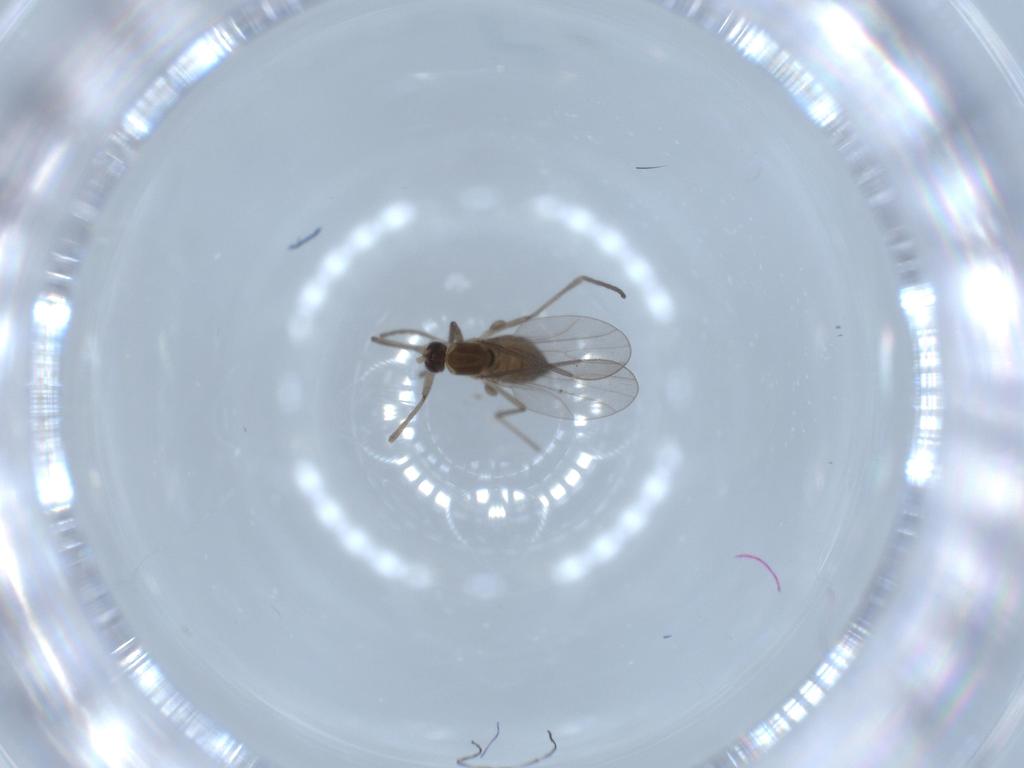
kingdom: Animalia
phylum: Arthropoda
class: Insecta
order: Diptera
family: Cecidomyiidae
